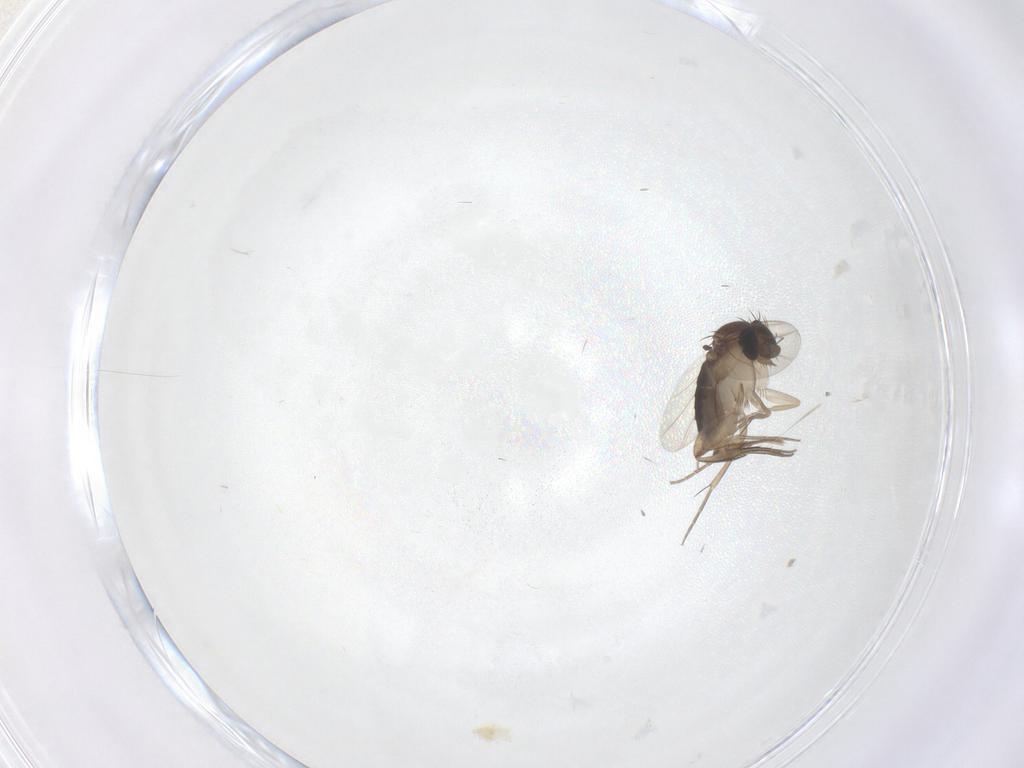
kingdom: Animalia
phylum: Arthropoda
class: Insecta
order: Diptera
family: Phoridae
